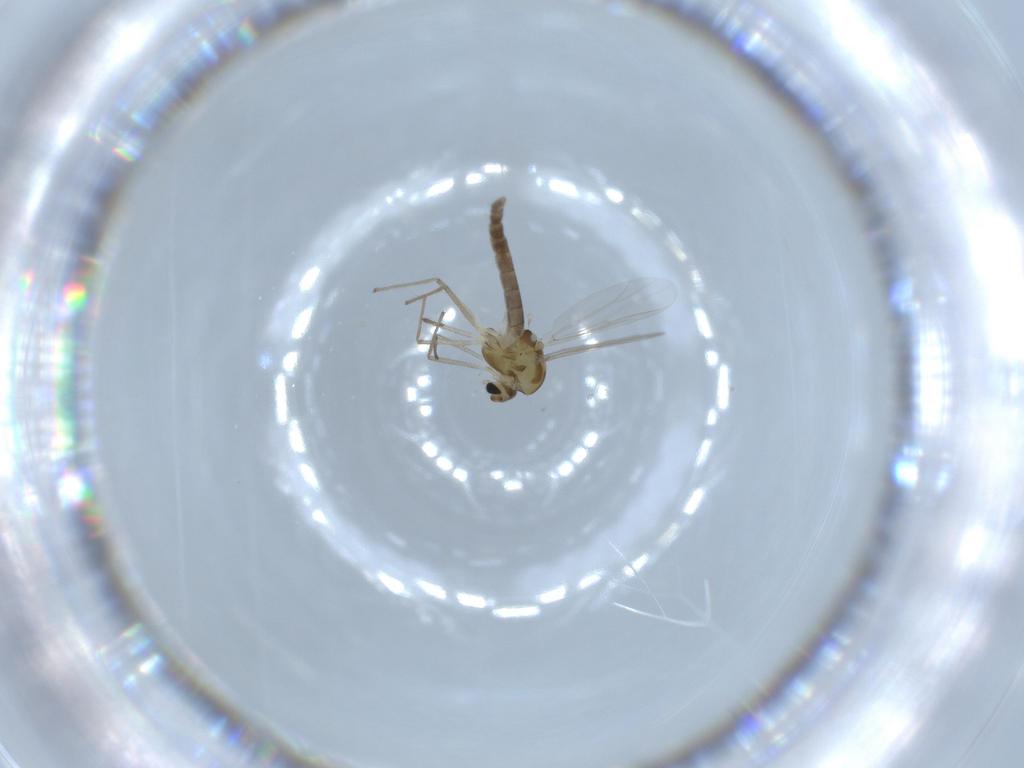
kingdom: Animalia
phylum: Arthropoda
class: Insecta
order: Diptera
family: Chironomidae
